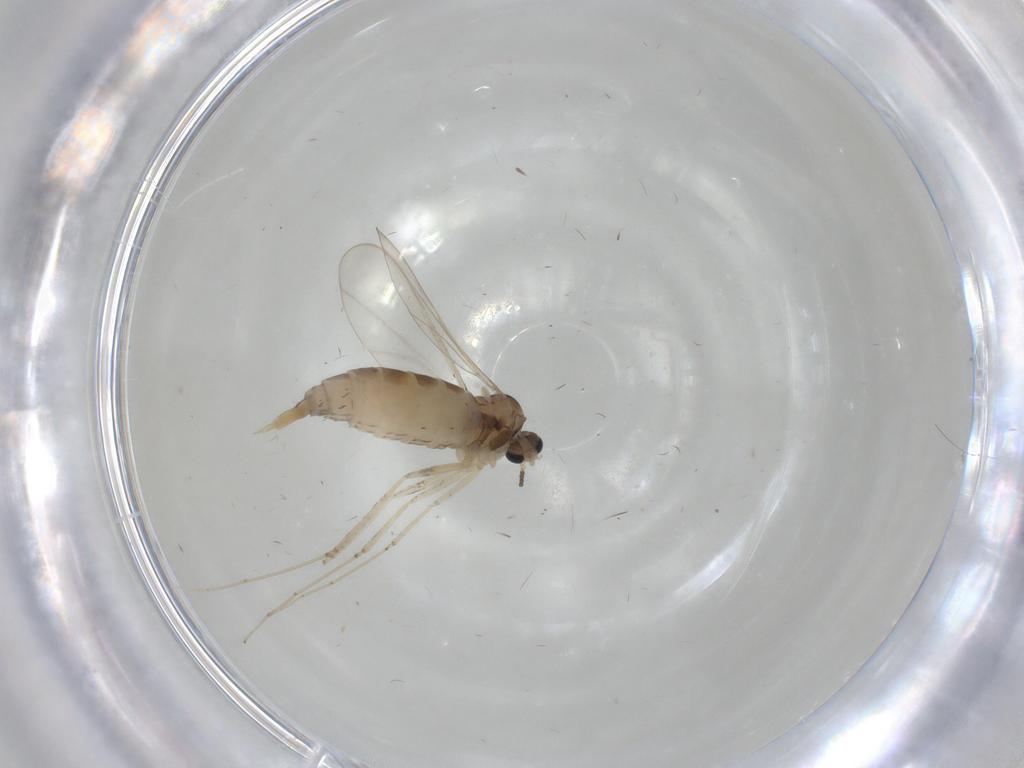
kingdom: Animalia
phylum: Arthropoda
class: Insecta
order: Diptera
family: Cecidomyiidae
